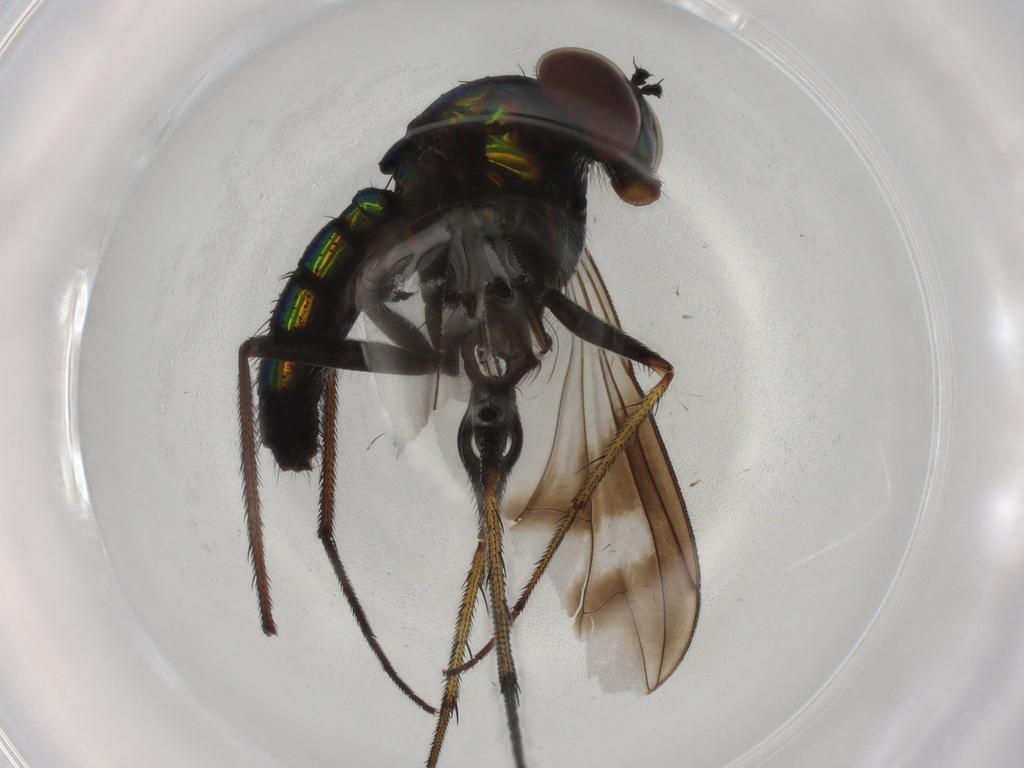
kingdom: Animalia
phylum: Arthropoda
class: Insecta
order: Diptera
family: Dolichopodidae
